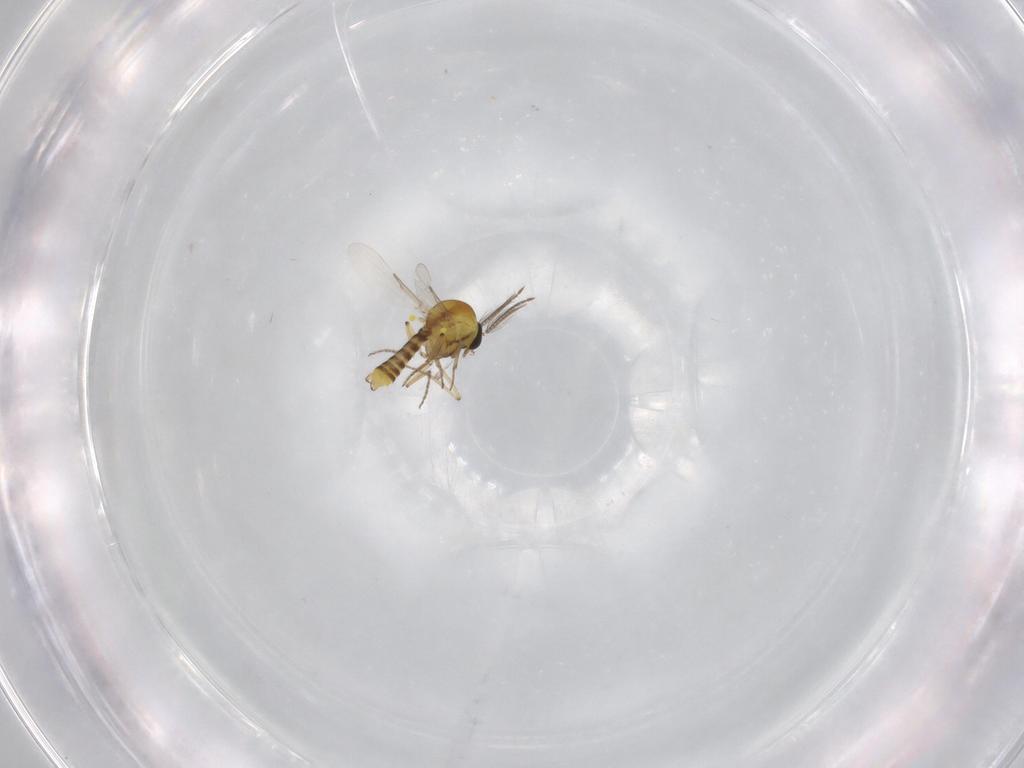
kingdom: Animalia
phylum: Arthropoda
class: Insecta
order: Diptera
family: Ceratopogonidae
